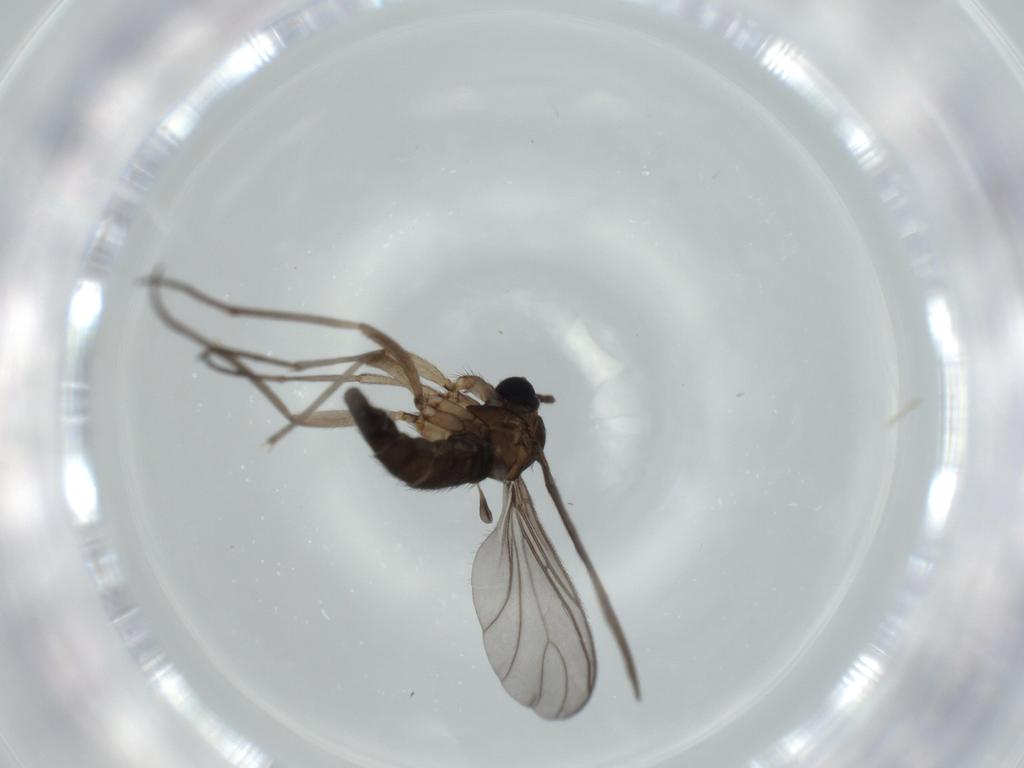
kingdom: Animalia
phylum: Arthropoda
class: Insecta
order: Diptera
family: Sciaridae
